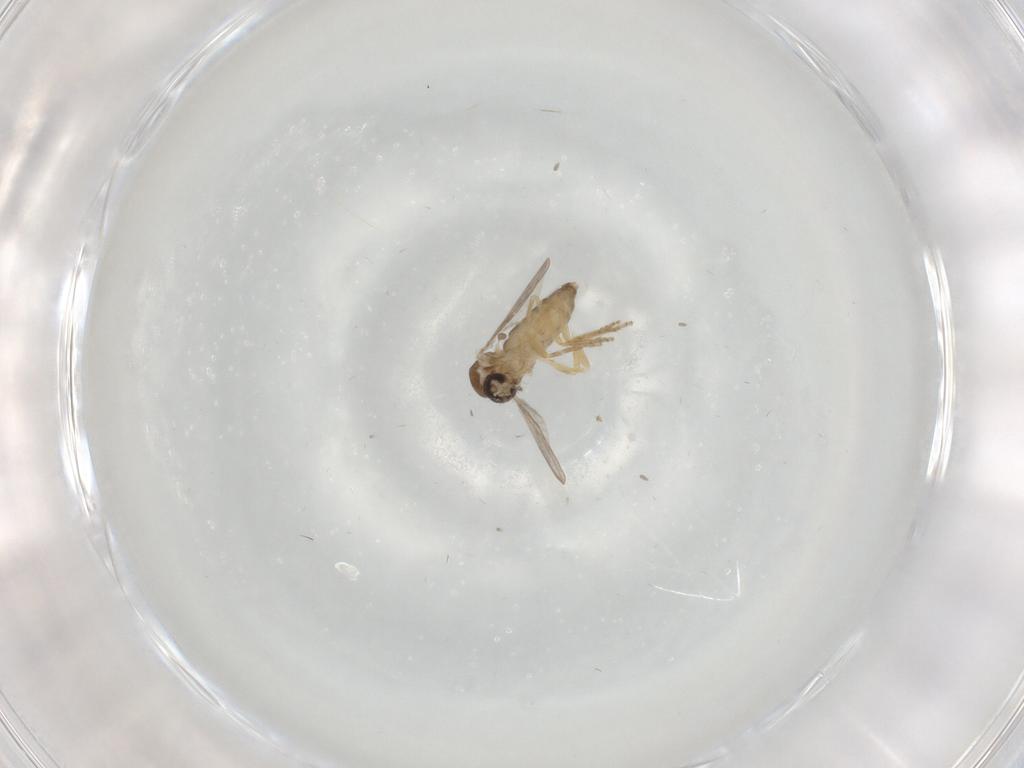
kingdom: Animalia
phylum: Arthropoda
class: Insecta
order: Diptera
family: Ceratopogonidae
